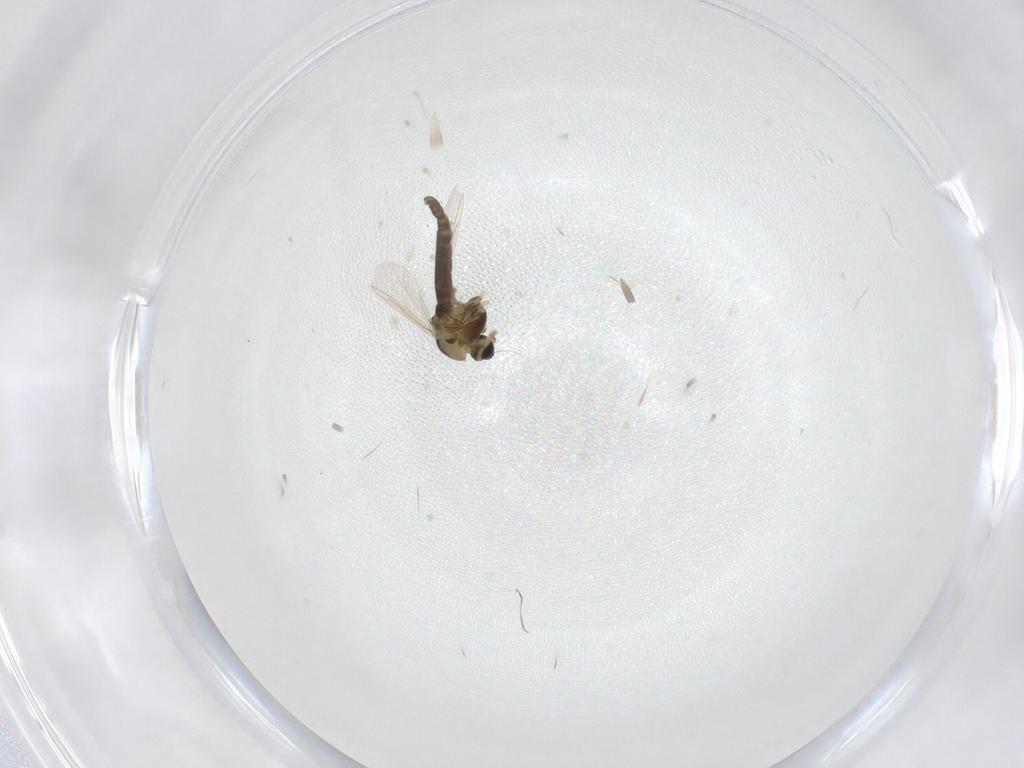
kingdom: Animalia
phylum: Arthropoda
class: Insecta
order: Diptera
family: Chironomidae
